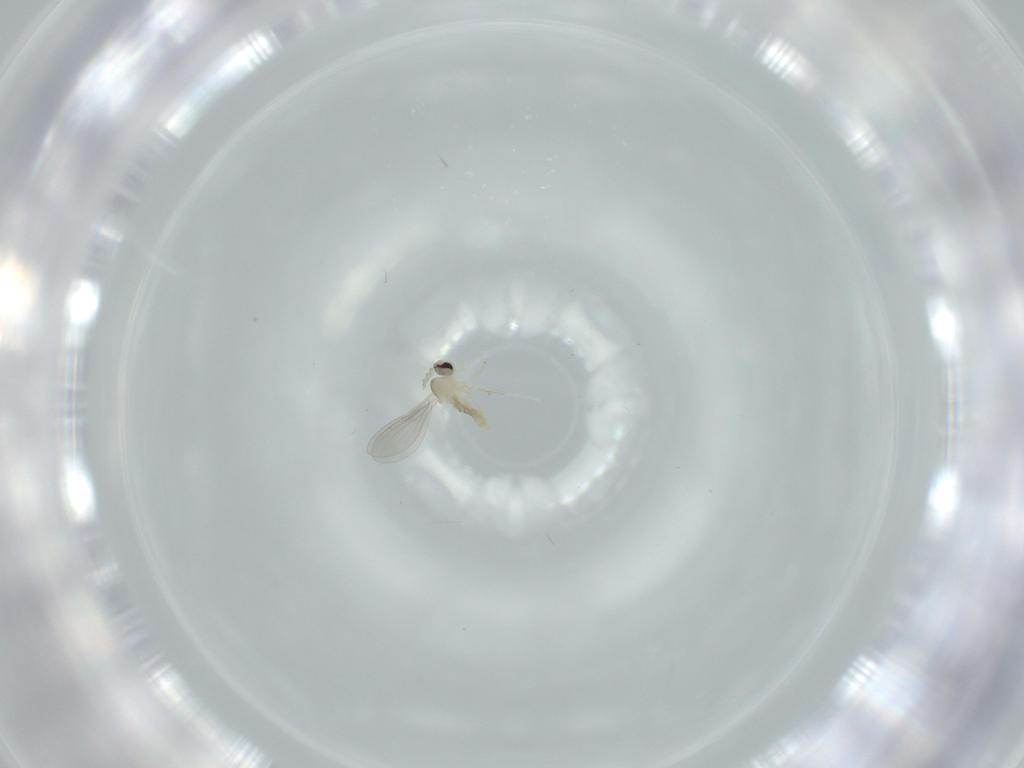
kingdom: Animalia
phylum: Arthropoda
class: Insecta
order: Diptera
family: Cecidomyiidae
